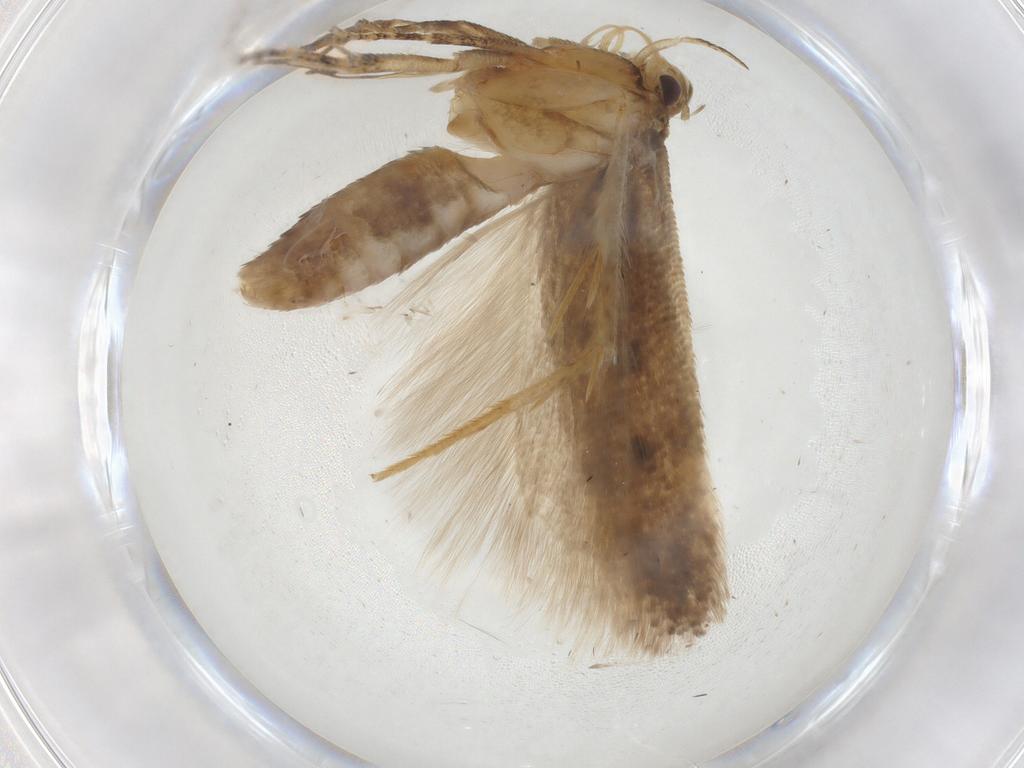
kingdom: Animalia
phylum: Arthropoda
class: Insecta
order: Lepidoptera
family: Gelechiidae
